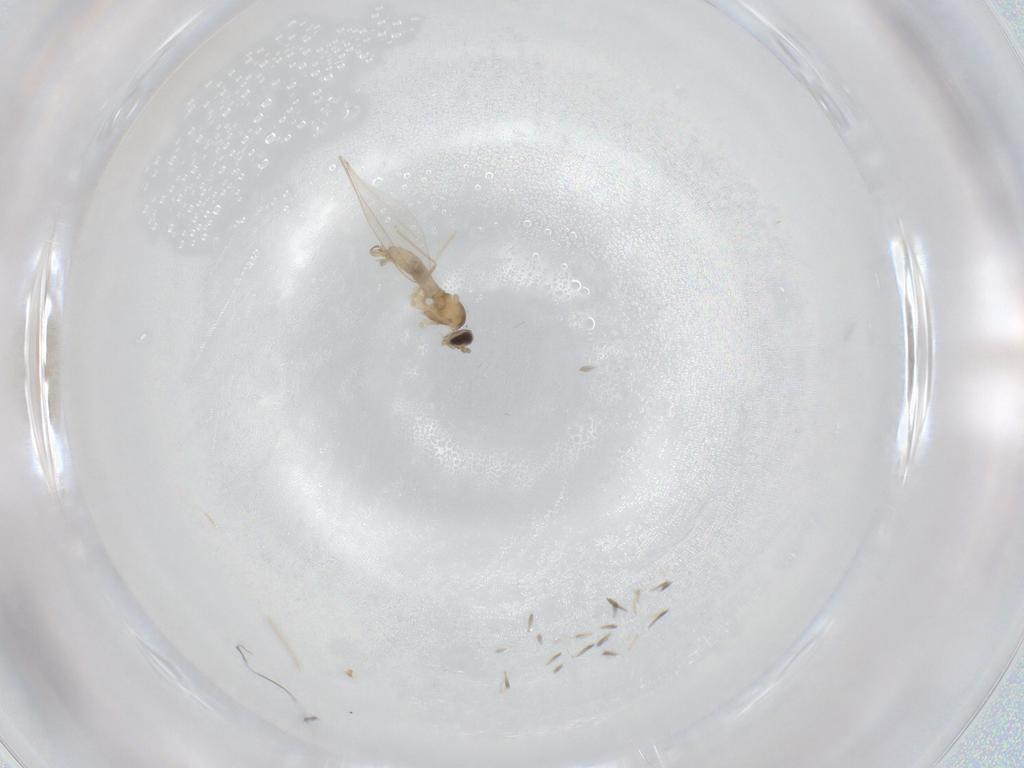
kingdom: Animalia
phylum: Arthropoda
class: Insecta
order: Diptera
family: Cecidomyiidae
